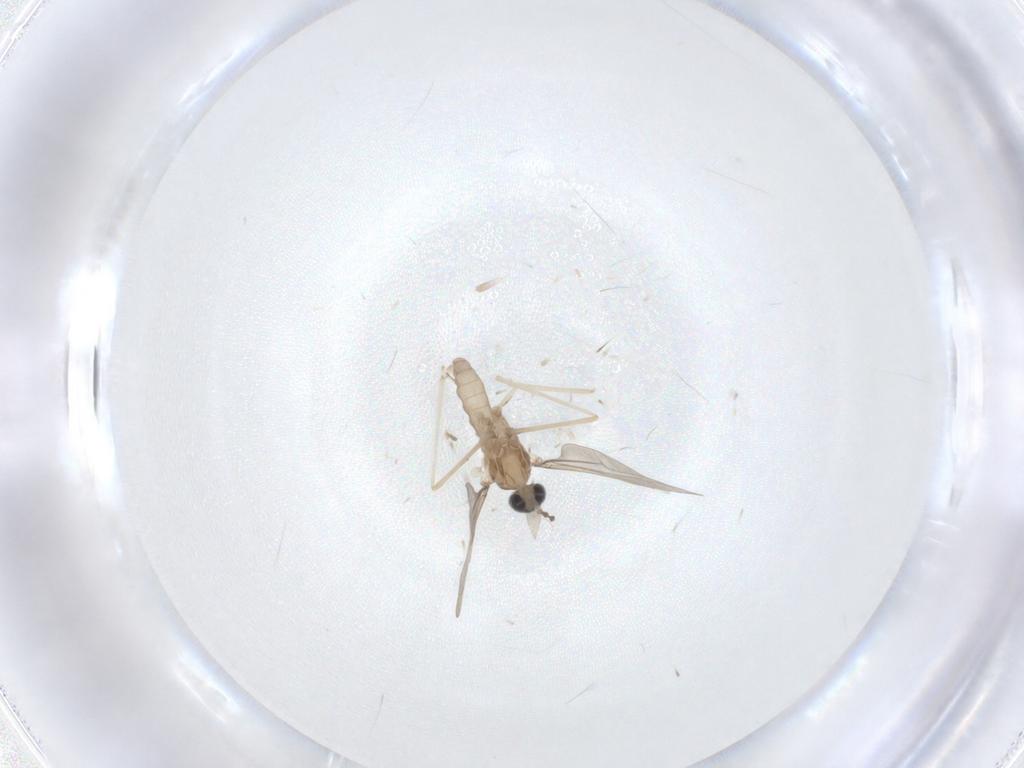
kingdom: Animalia
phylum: Arthropoda
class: Insecta
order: Diptera
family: Cecidomyiidae
